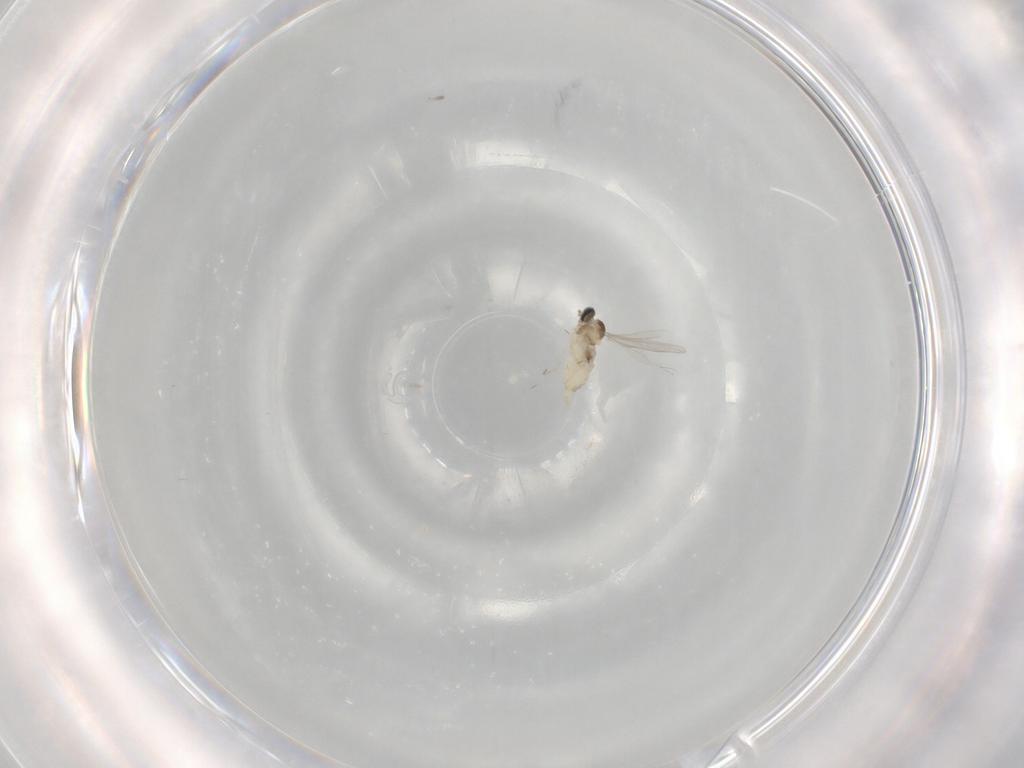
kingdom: Animalia
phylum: Arthropoda
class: Insecta
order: Diptera
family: Cecidomyiidae
